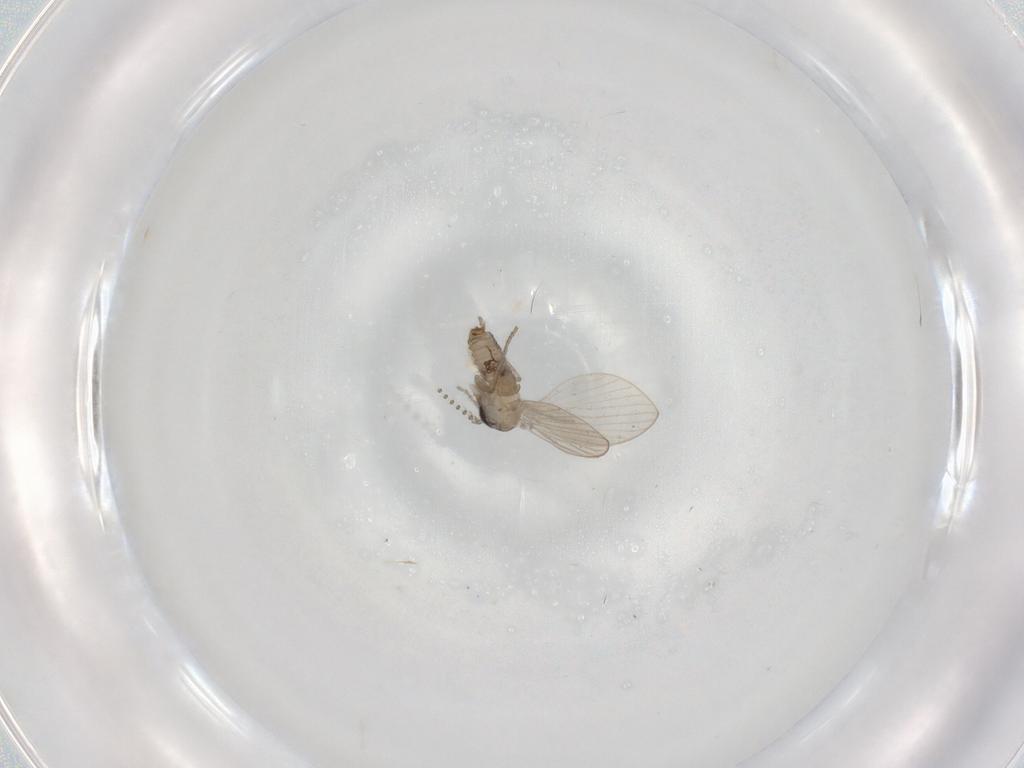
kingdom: Animalia
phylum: Arthropoda
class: Insecta
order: Diptera
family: Psychodidae
